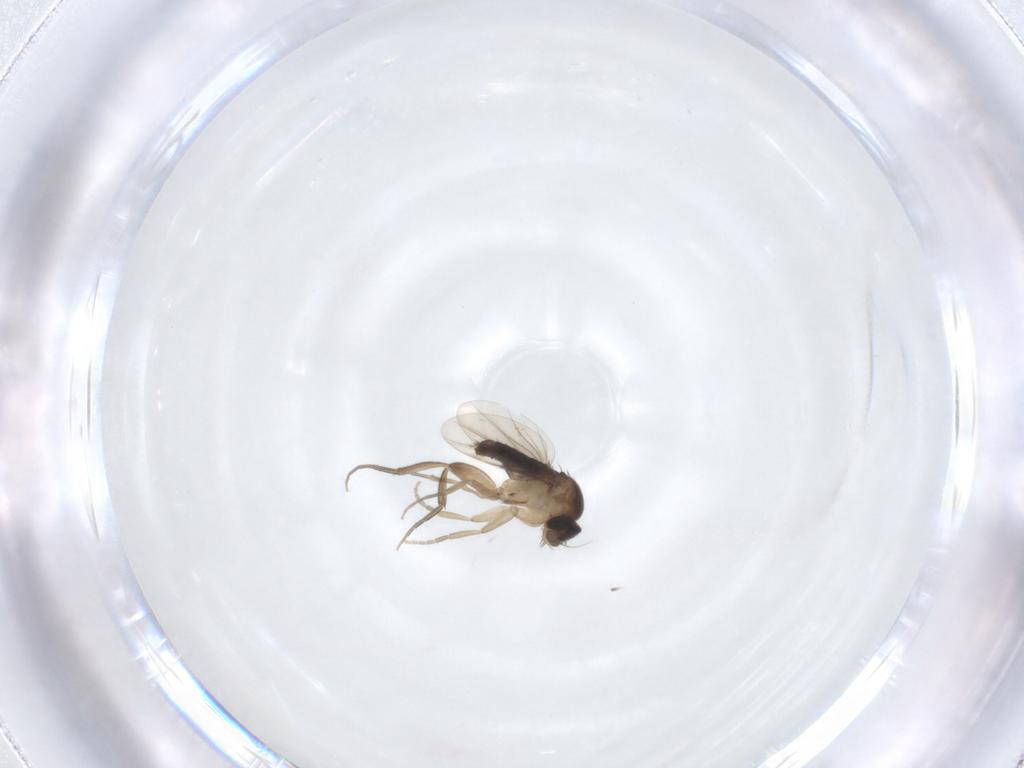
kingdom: Animalia
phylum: Arthropoda
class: Insecta
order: Diptera
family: Phoridae
